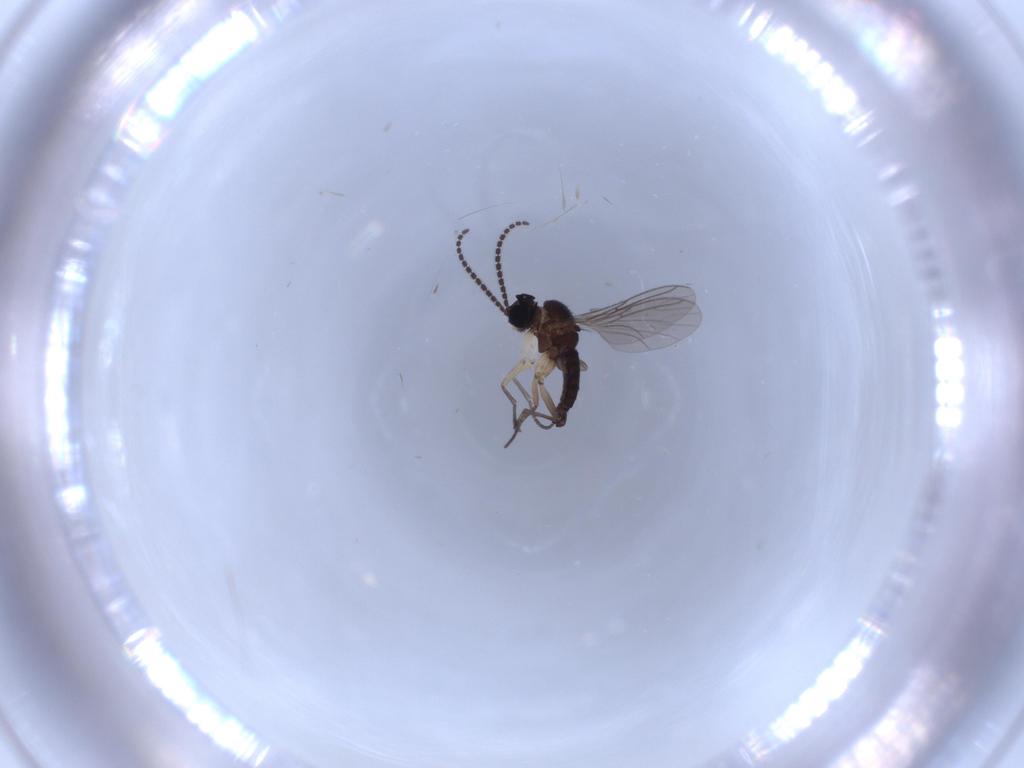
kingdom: Animalia
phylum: Arthropoda
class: Insecta
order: Diptera
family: Sciaridae
